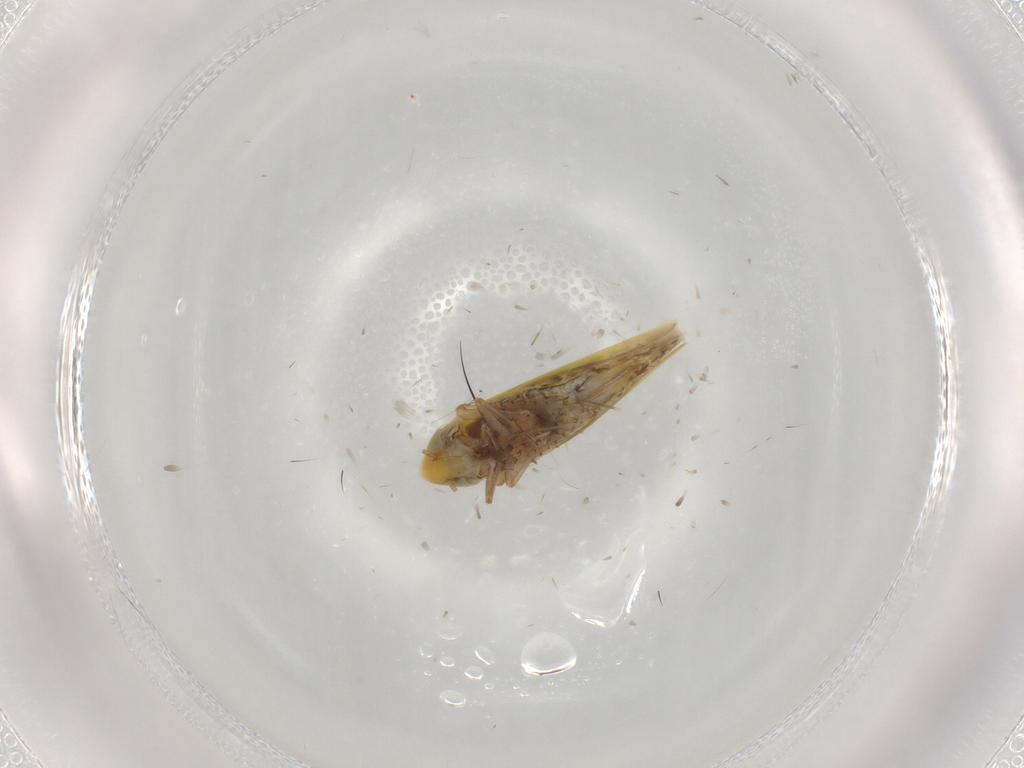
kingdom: Animalia
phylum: Arthropoda
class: Insecta
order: Hemiptera
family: Cicadellidae
